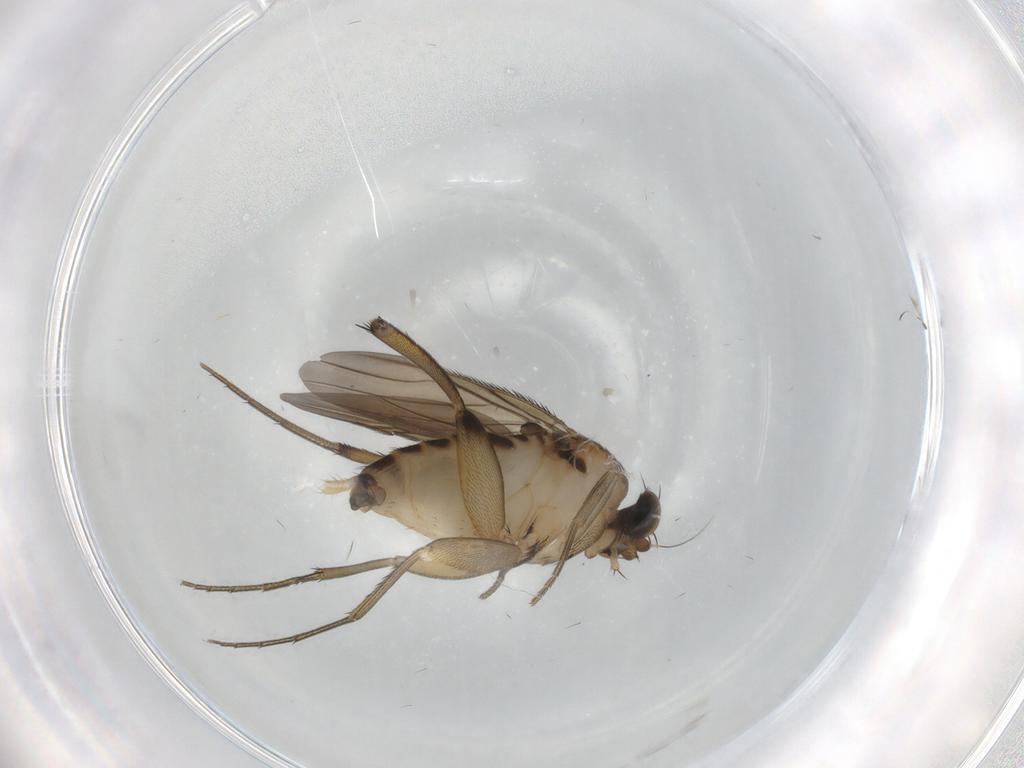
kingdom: Animalia
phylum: Arthropoda
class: Insecta
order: Diptera
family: Phoridae
